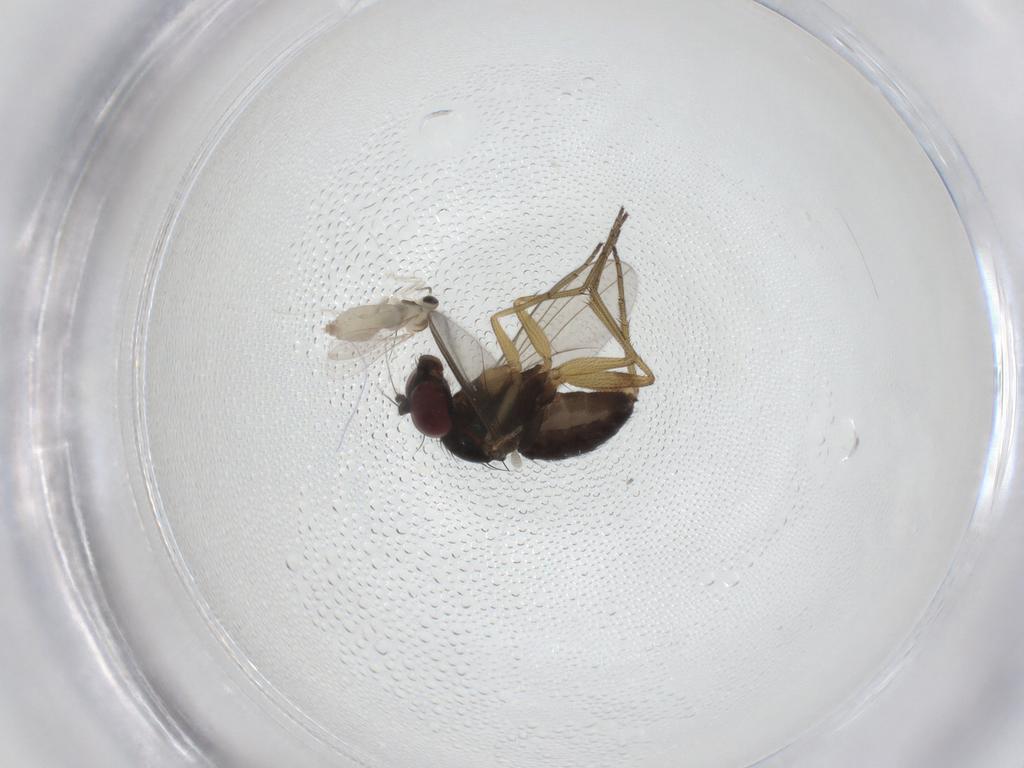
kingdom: Animalia
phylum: Arthropoda
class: Insecta
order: Diptera
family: Dolichopodidae
